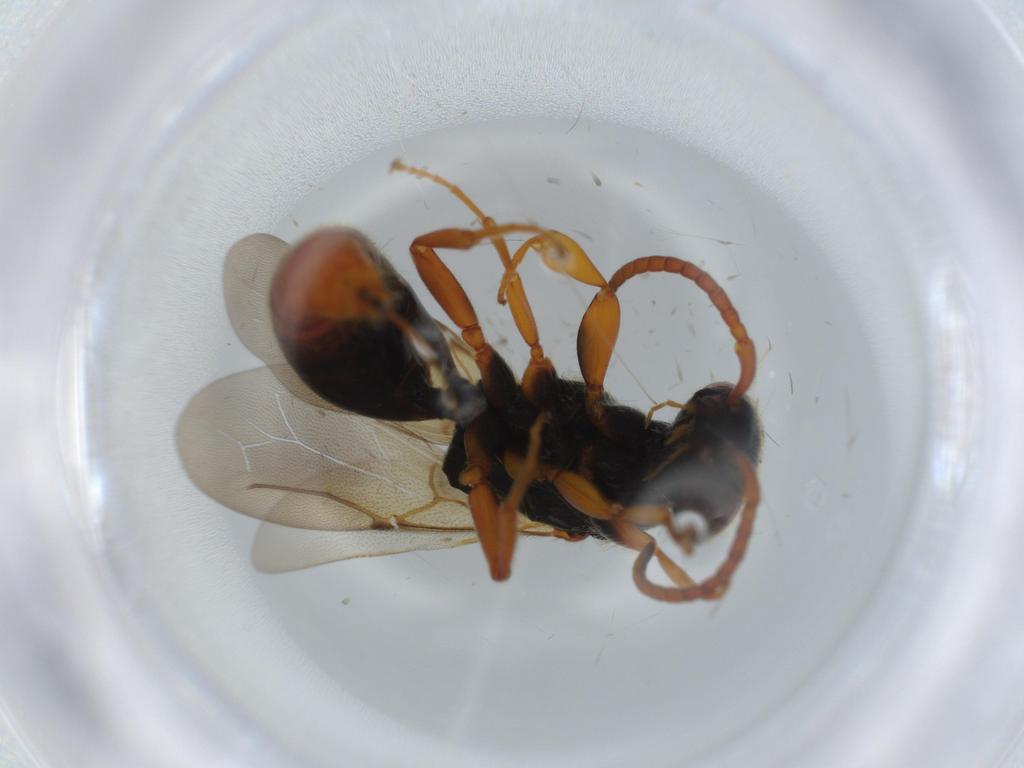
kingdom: Animalia
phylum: Arthropoda
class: Insecta
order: Hymenoptera
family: Bethylidae
